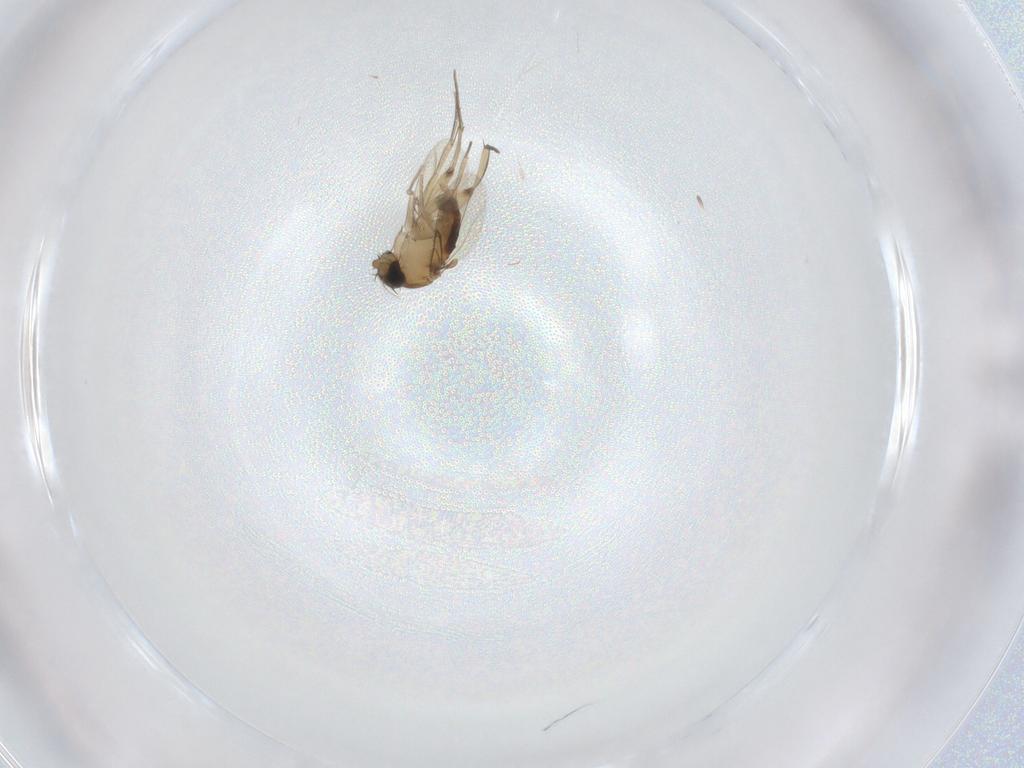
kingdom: Animalia
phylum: Arthropoda
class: Insecta
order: Diptera
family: Phoridae
